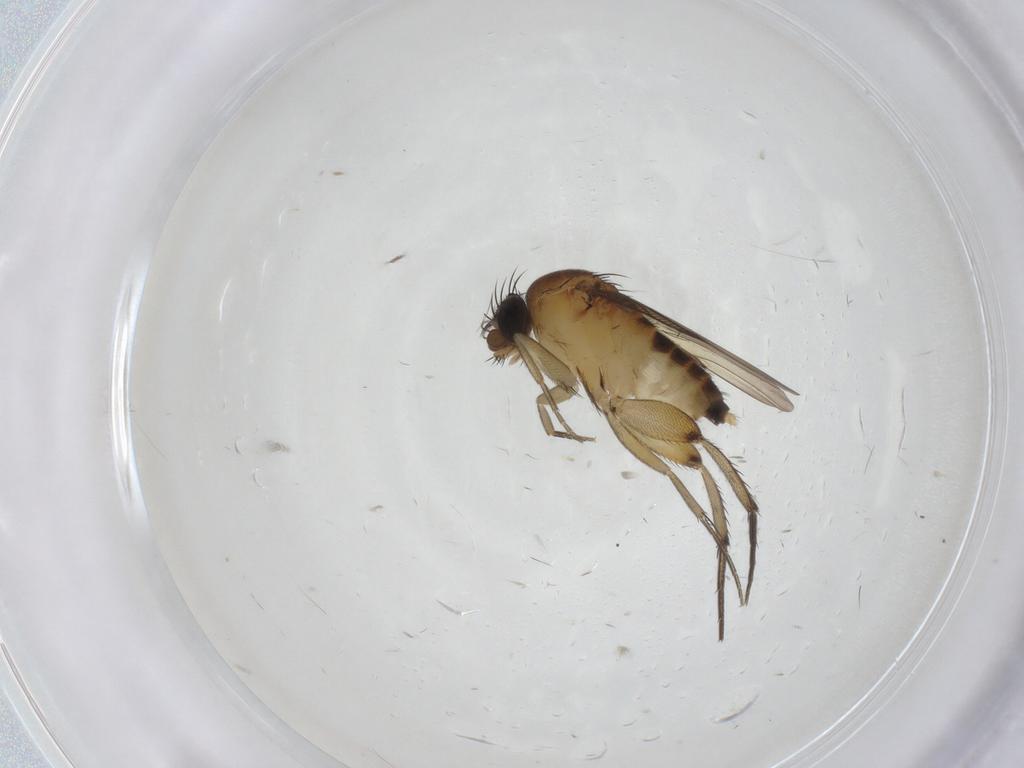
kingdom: Animalia
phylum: Arthropoda
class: Insecta
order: Diptera
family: Phoridae
